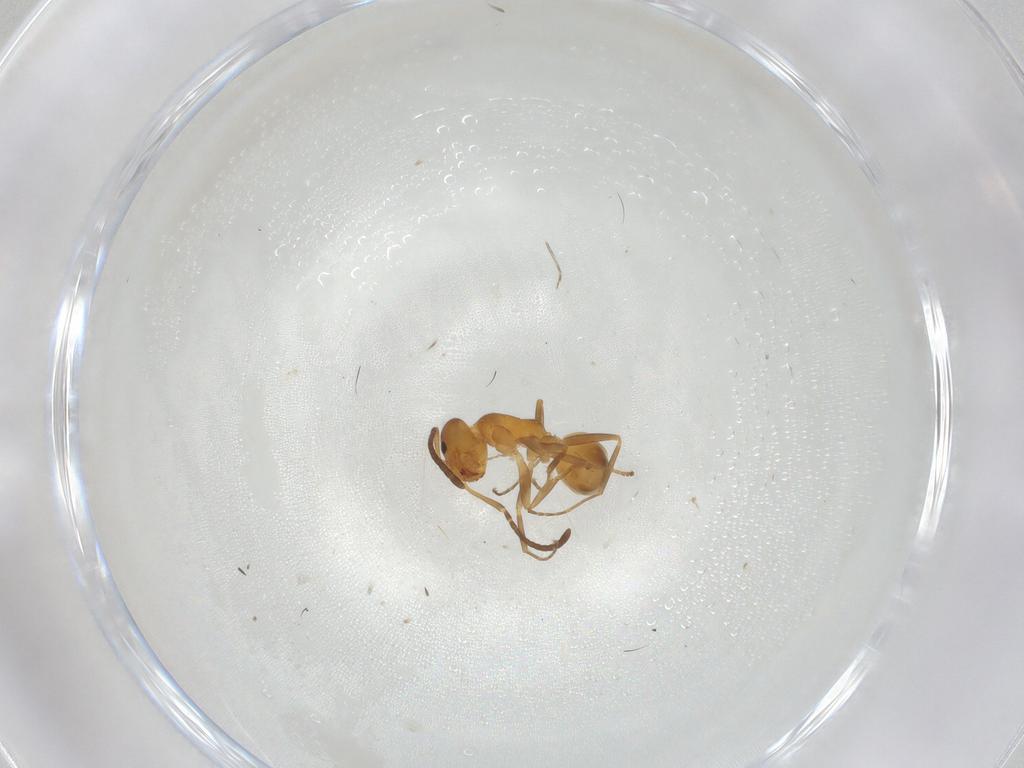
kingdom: Animalia
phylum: Arthropoda
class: Insecta
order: Hymenoptera
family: Formicidae
